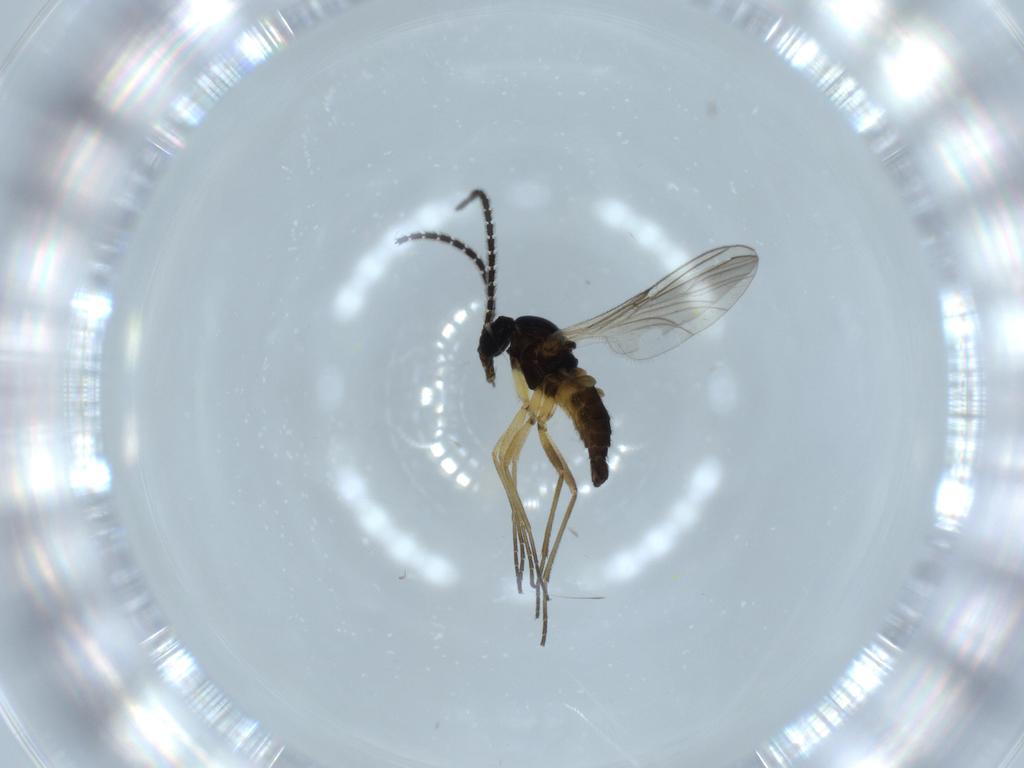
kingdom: Animalia
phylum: Arthropoda
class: Insecta
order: Diptera
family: Sciaridae
